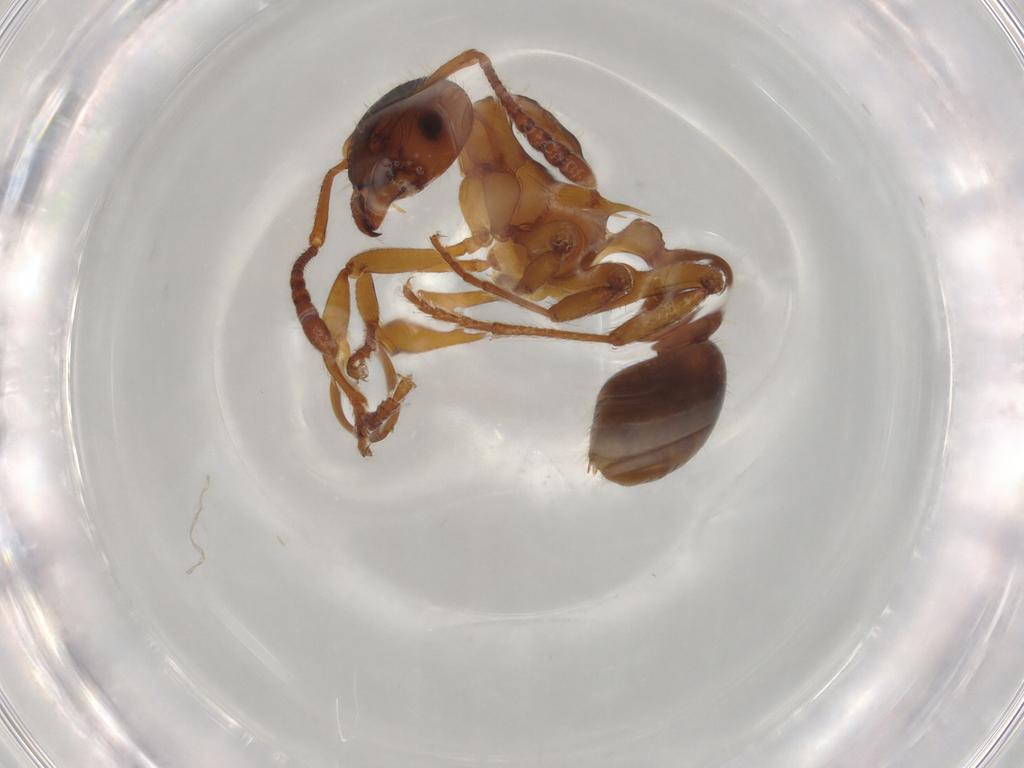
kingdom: Animalia
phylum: Arthropoda
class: Insecta
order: Hymenoptera
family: Formicidae
